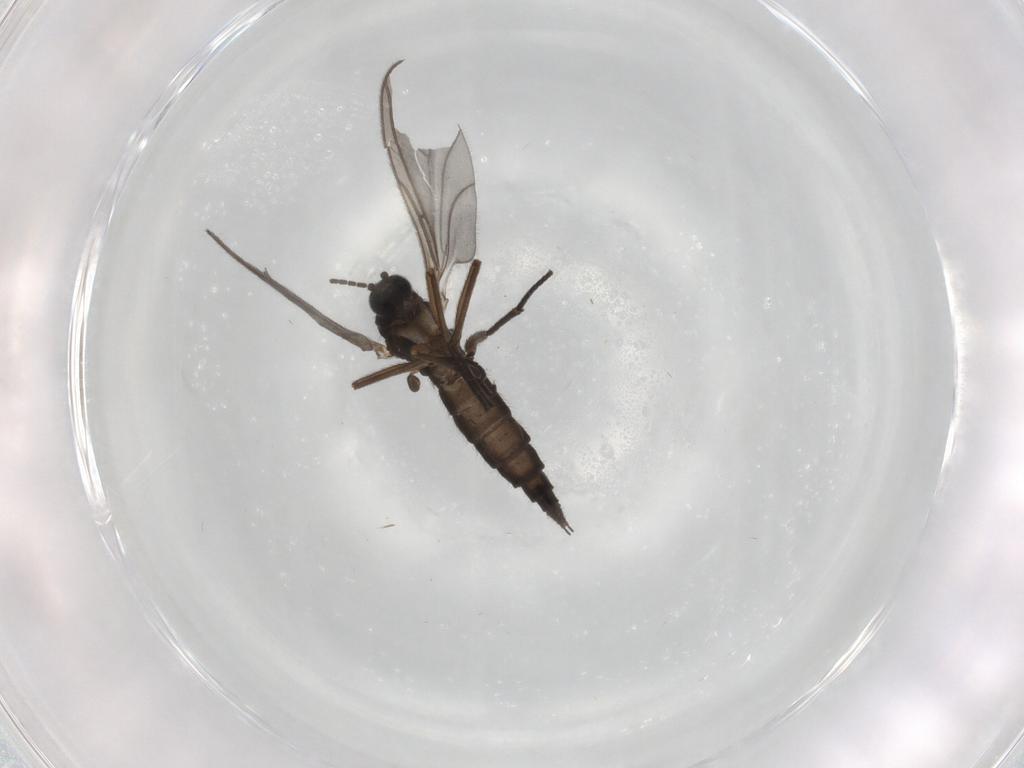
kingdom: Animalia
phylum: Arthropoda
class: Insecta
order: Diptera
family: Sciaridae
